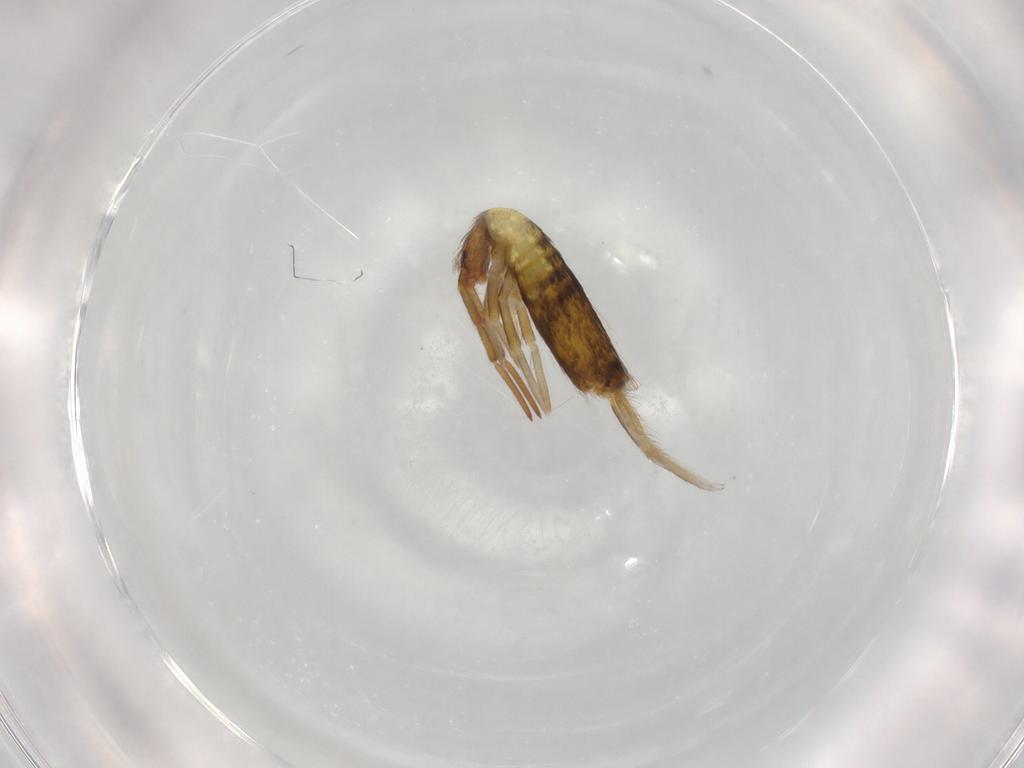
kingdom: Animalia
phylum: Arthropoda
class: Collembola
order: Entomobryomorpha
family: Entomobryidae
